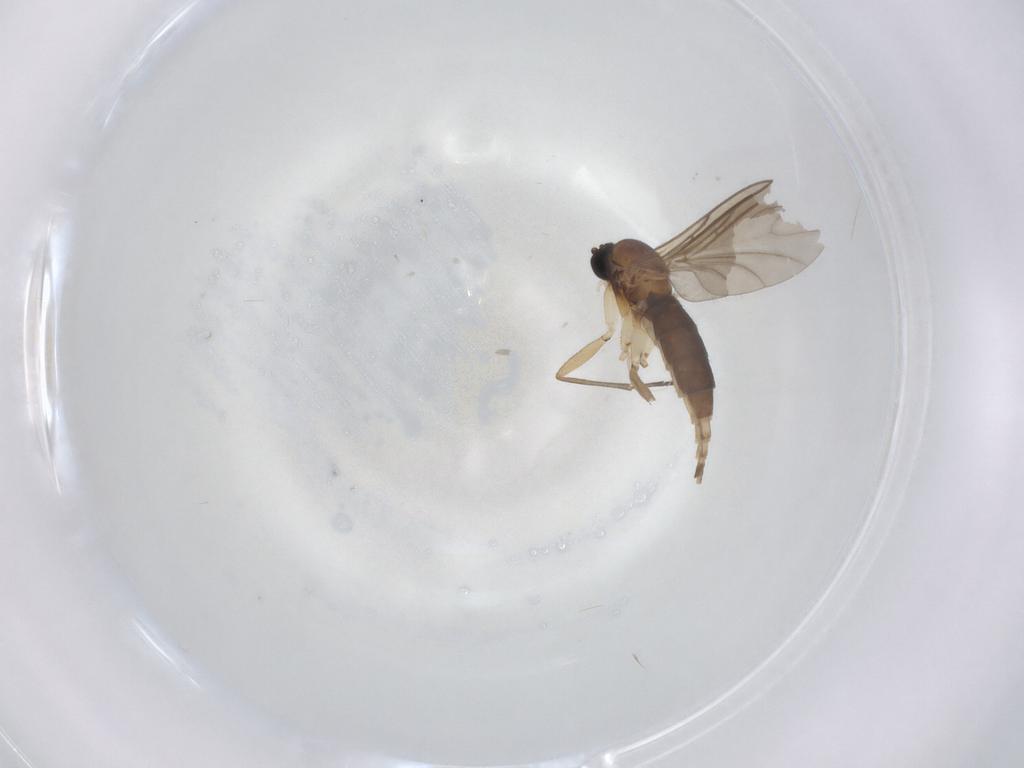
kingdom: Animalia
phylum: Arthropoda
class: Insecta
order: Diptera
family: Sciaridae
